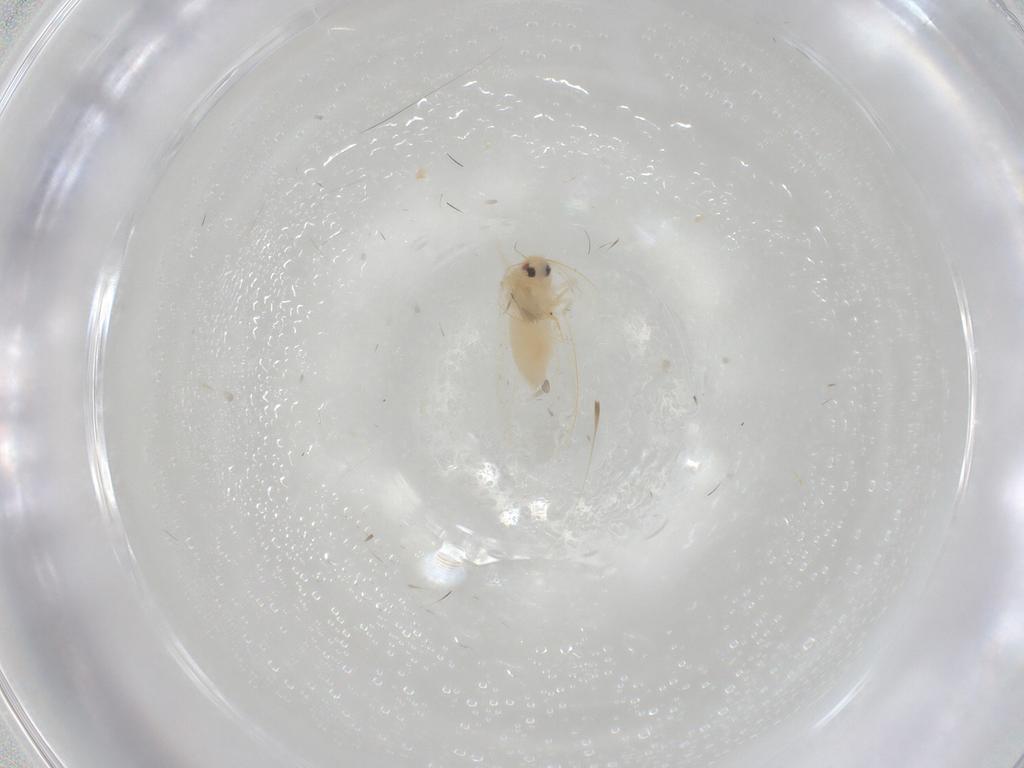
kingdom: Animalia
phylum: Arthropoda
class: Insecta
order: Hemiptera
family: Aleyrodidae
